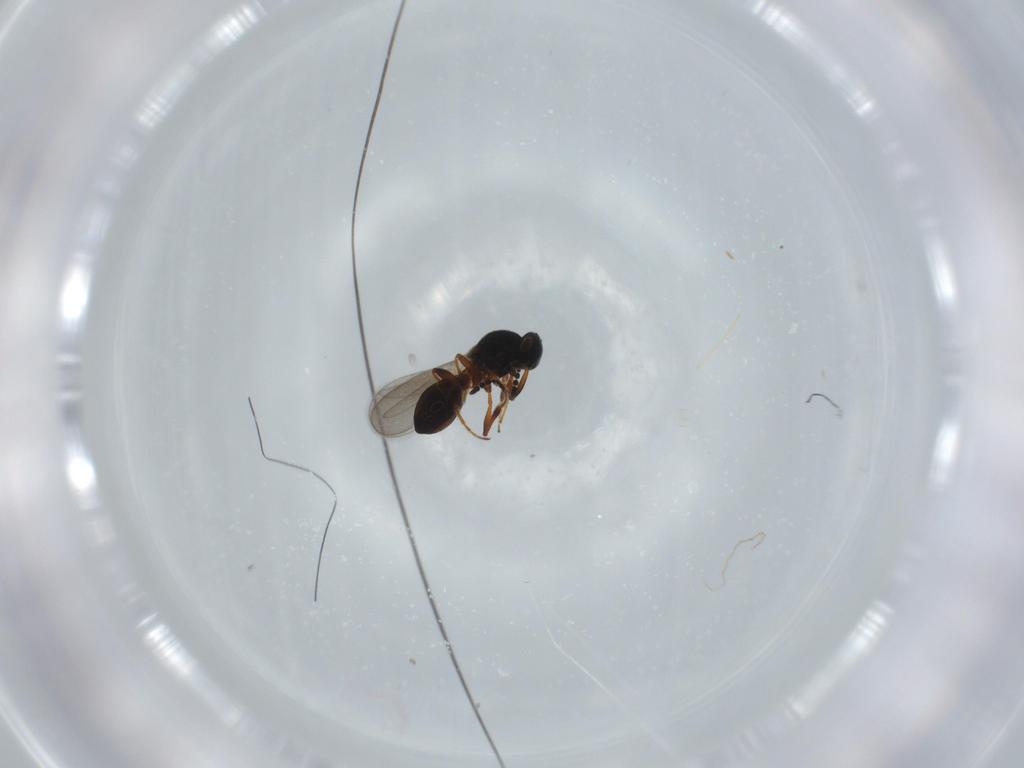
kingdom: Animalia
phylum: Arthropoda
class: Insecta
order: Hymenoptera
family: Platygastridae
